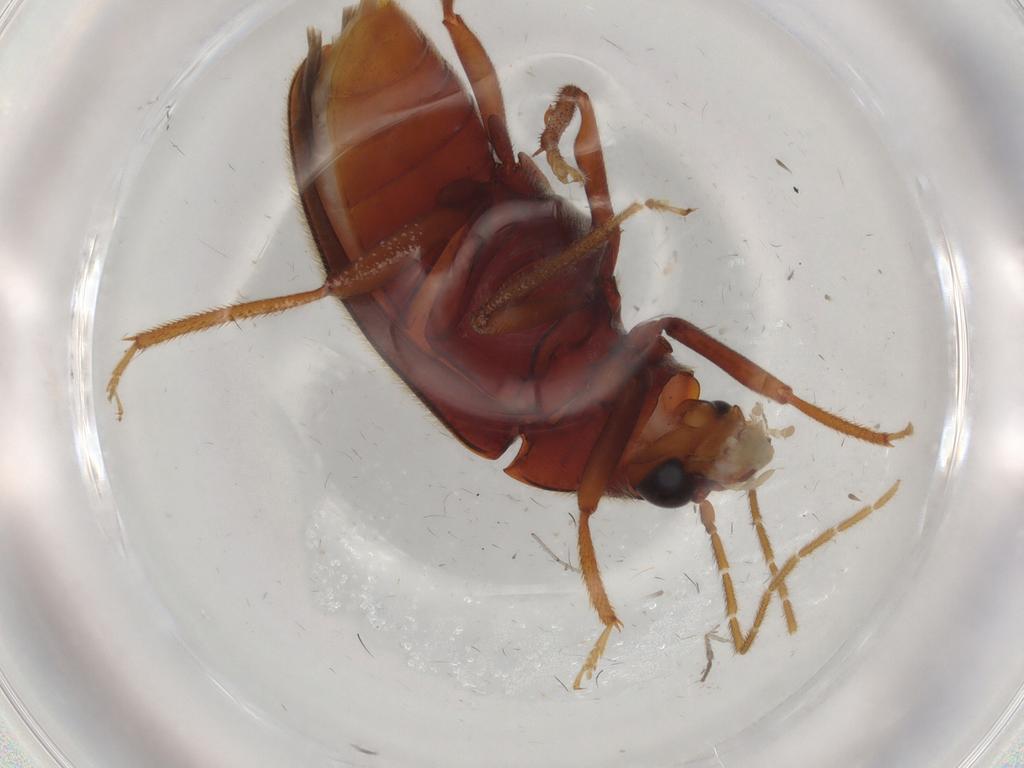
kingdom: Animalia
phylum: Arthropoda
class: Insecta
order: Coleoptera
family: Ptilodactylidae
